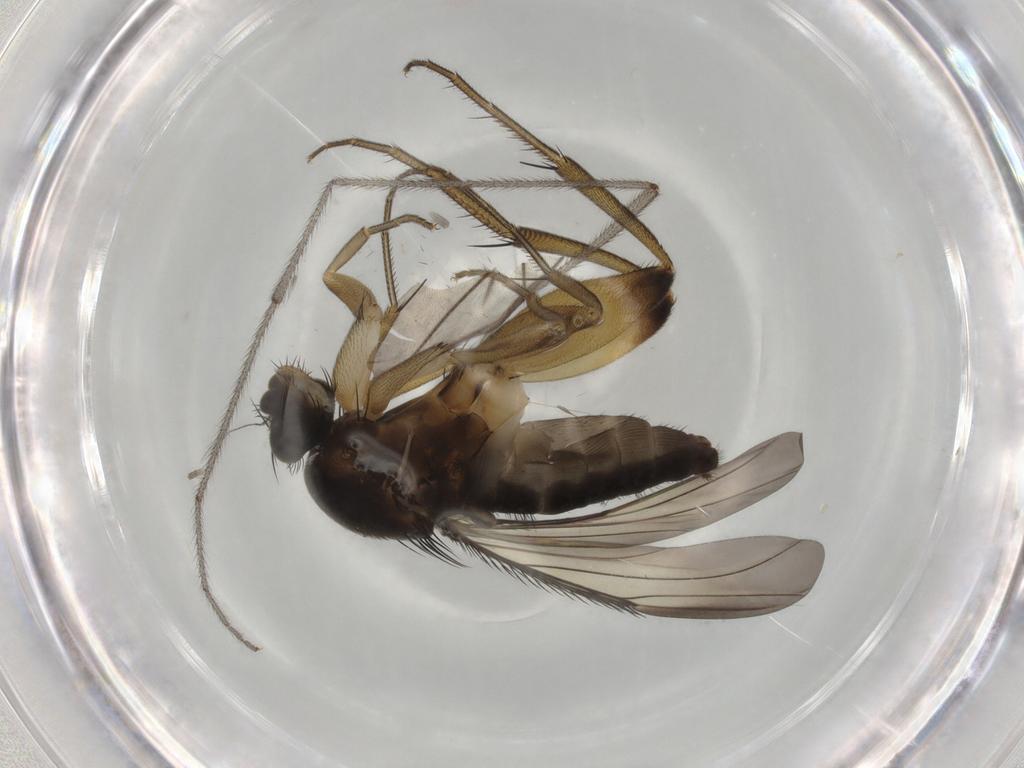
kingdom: Animalia
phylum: Arthropoda
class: Insecta
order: Diptera
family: Phoridae
